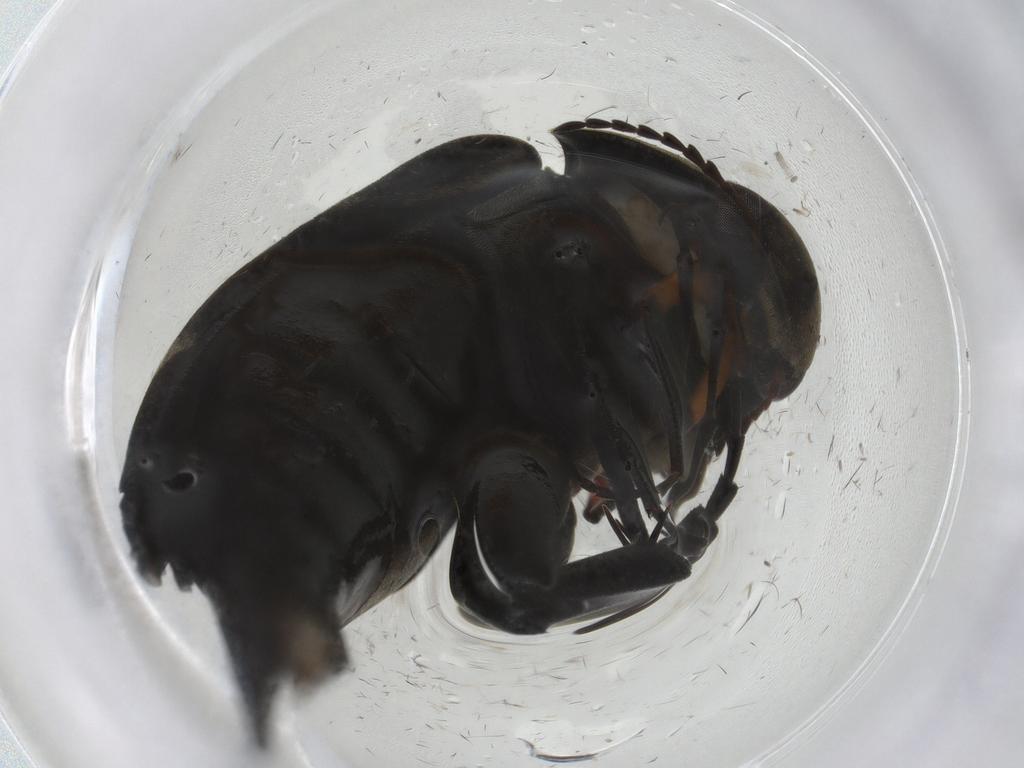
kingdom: Animalia
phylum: Arthropoda
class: Insecta
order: Coleoptera
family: Mordellidae
